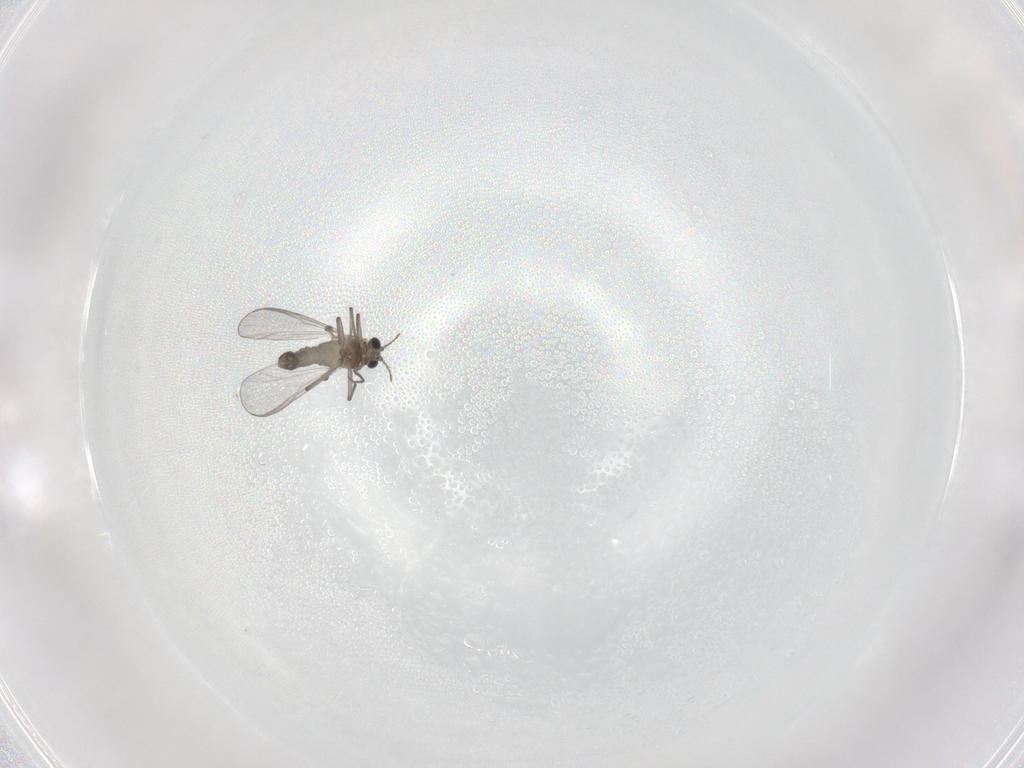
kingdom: Animalia
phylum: Arthropoda
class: Insecta
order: Diptera
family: Chironomidae
